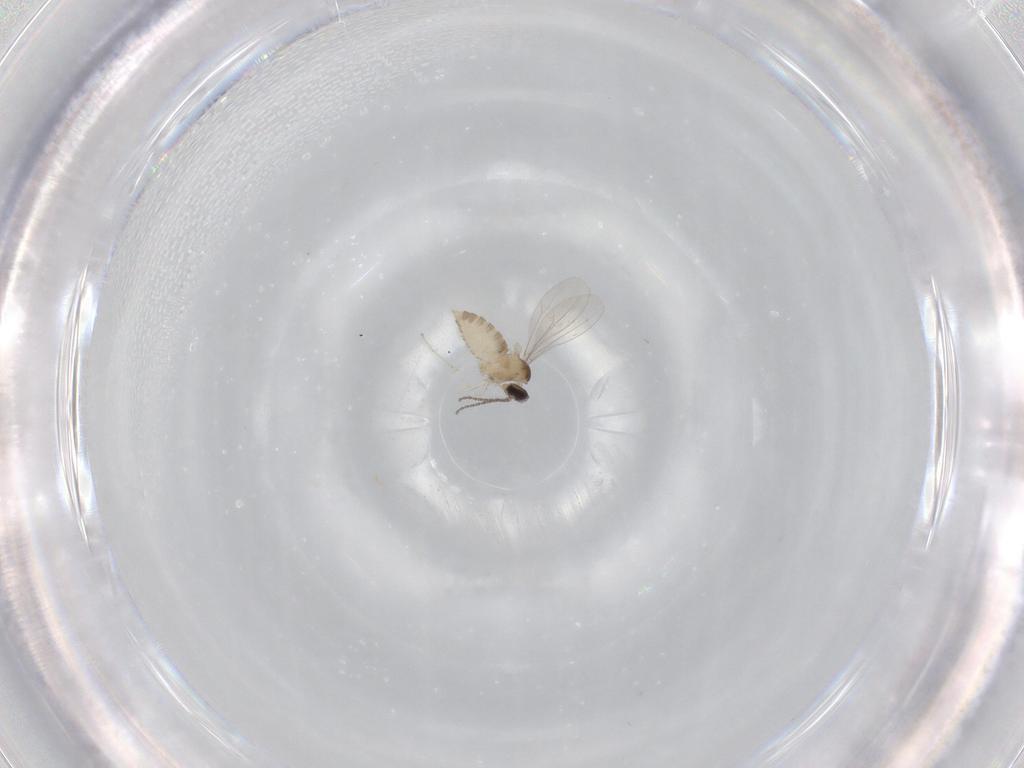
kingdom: Animalia
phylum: Arthropoda
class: Insecta
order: Diptera
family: Cecidomyiidae
